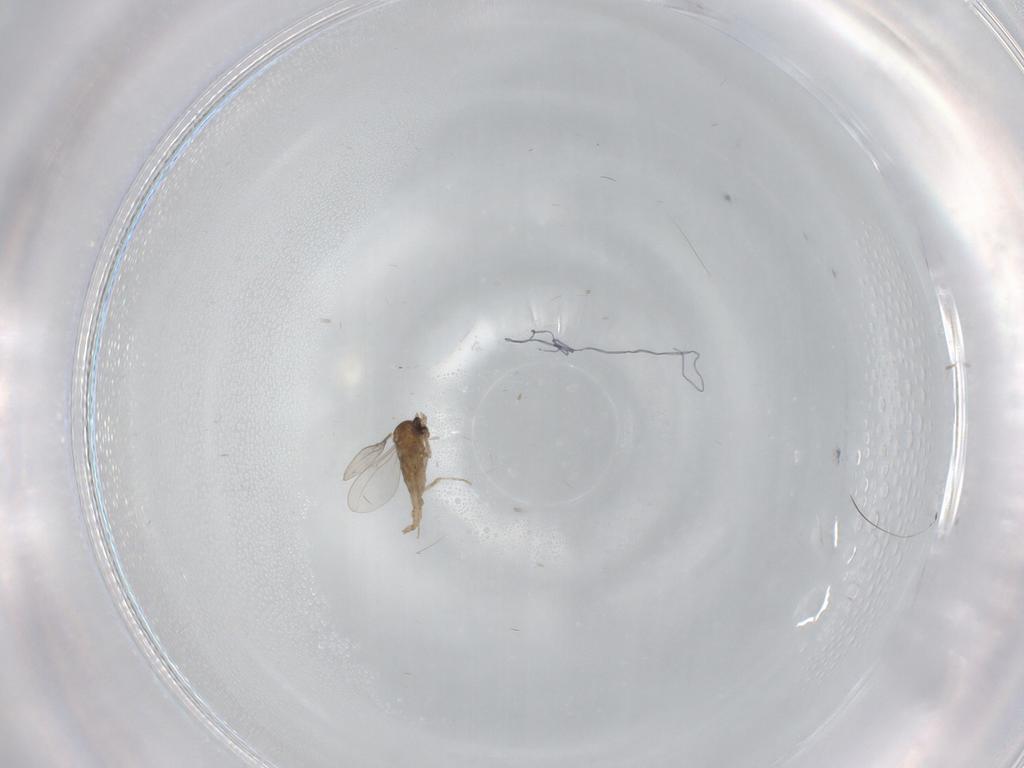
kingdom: Animalia
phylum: Arthropoda
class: Insecta
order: Diptera
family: Cecidomyiidae
